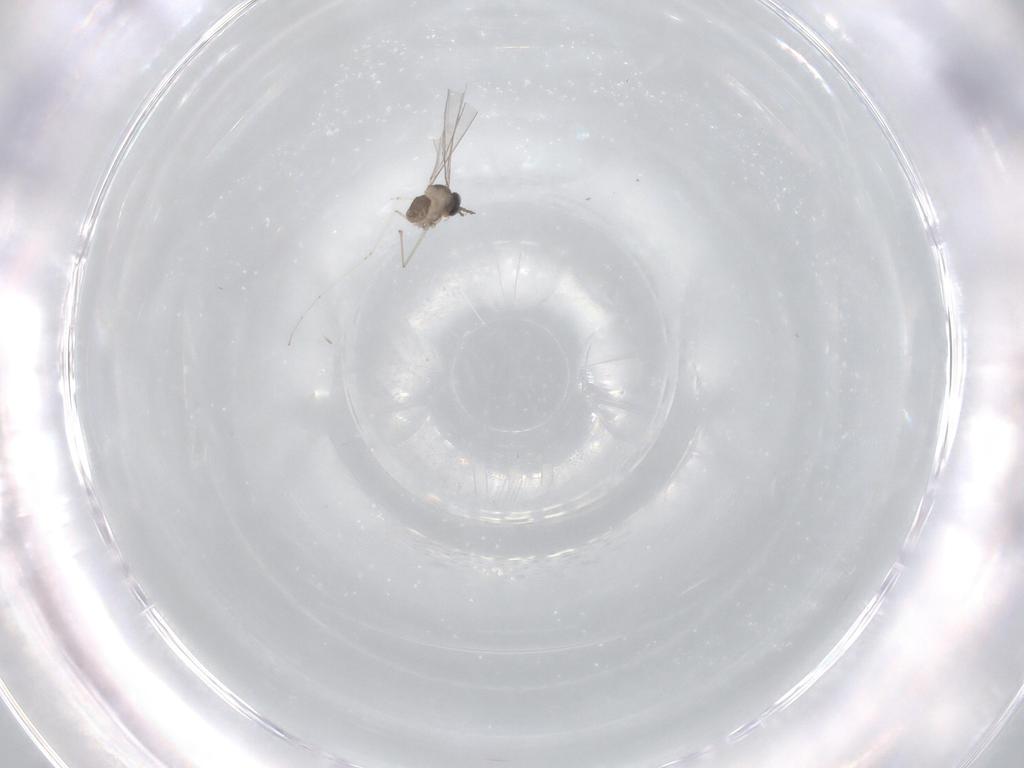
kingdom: Animalia
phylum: Arthropoda
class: Insecta
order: Diptera
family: Cecidomyiidae
